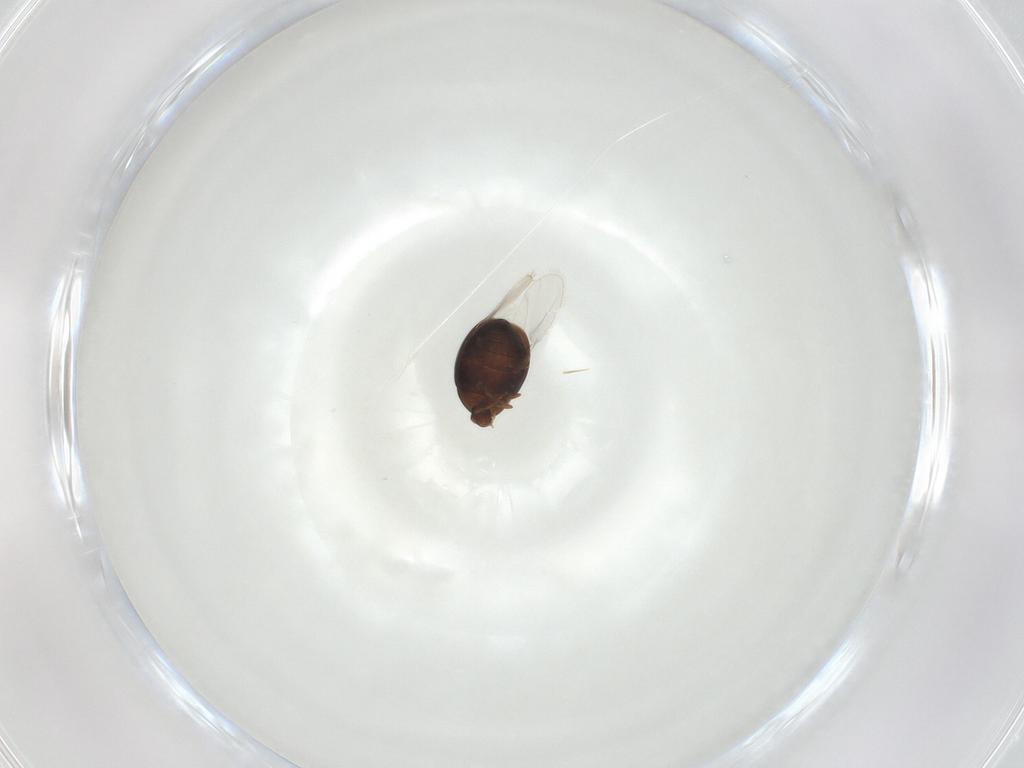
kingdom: Animalia
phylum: Arthropoda
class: Insecta
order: Coleoptera
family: Corylophidae
